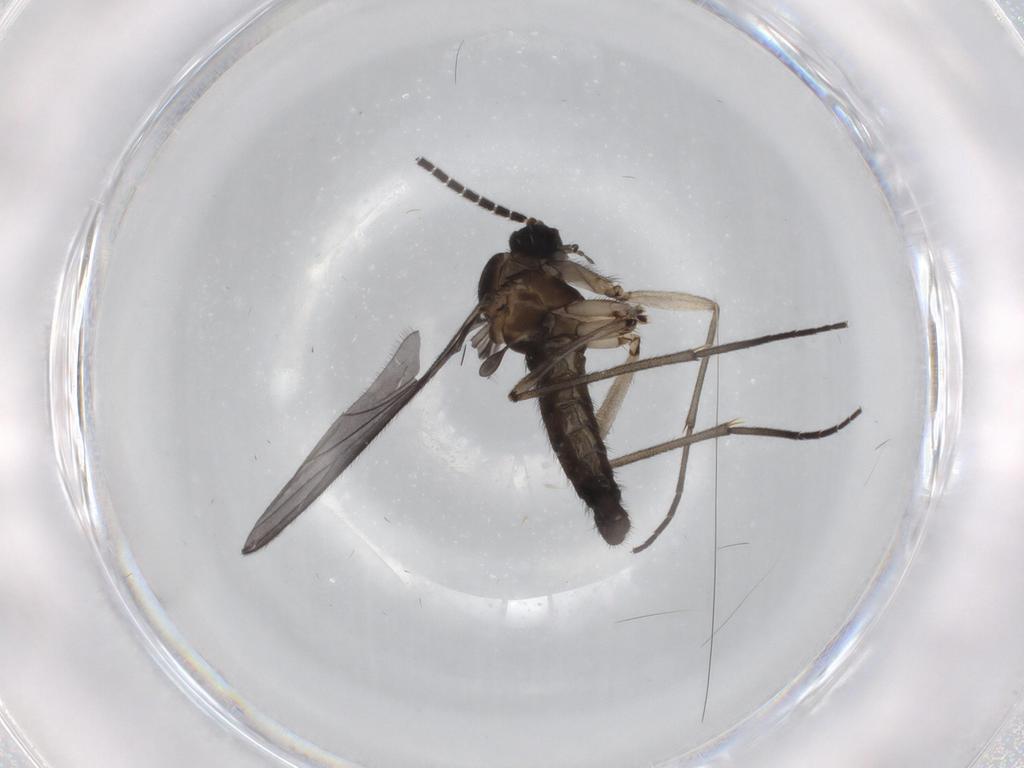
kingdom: Animalia
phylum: Arthropoda
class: Insecta
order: Diptera
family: Sciaridae
